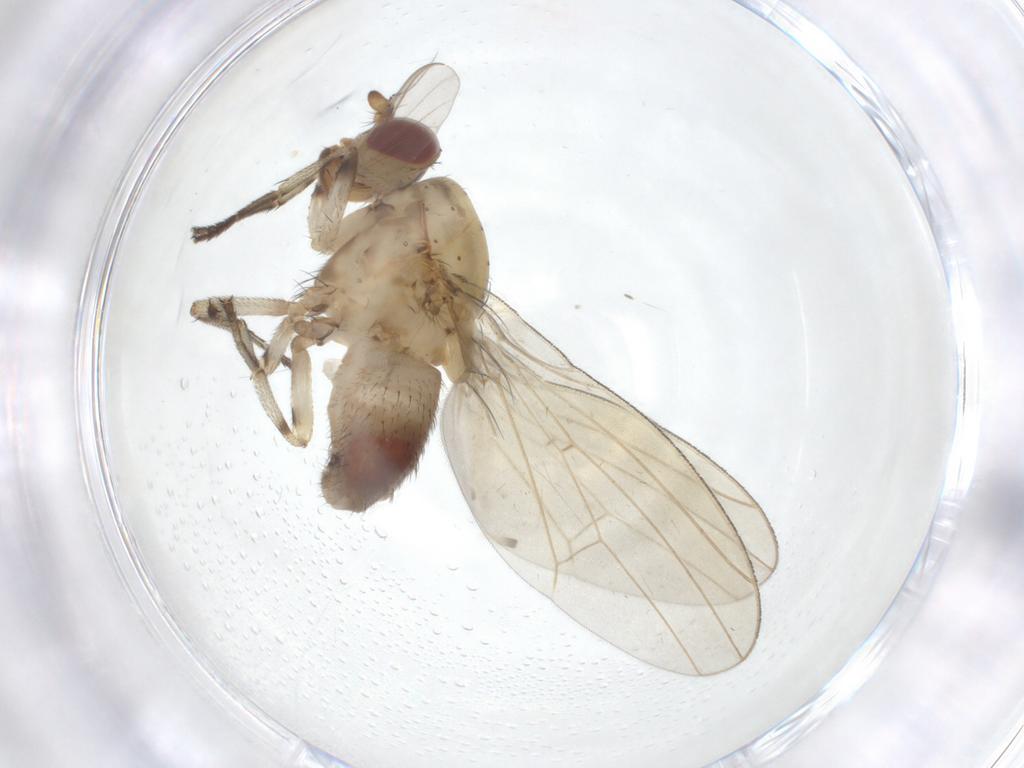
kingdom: Animalia
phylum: Arthropoda
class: Insecta
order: Diptera
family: Lauxaniidae
